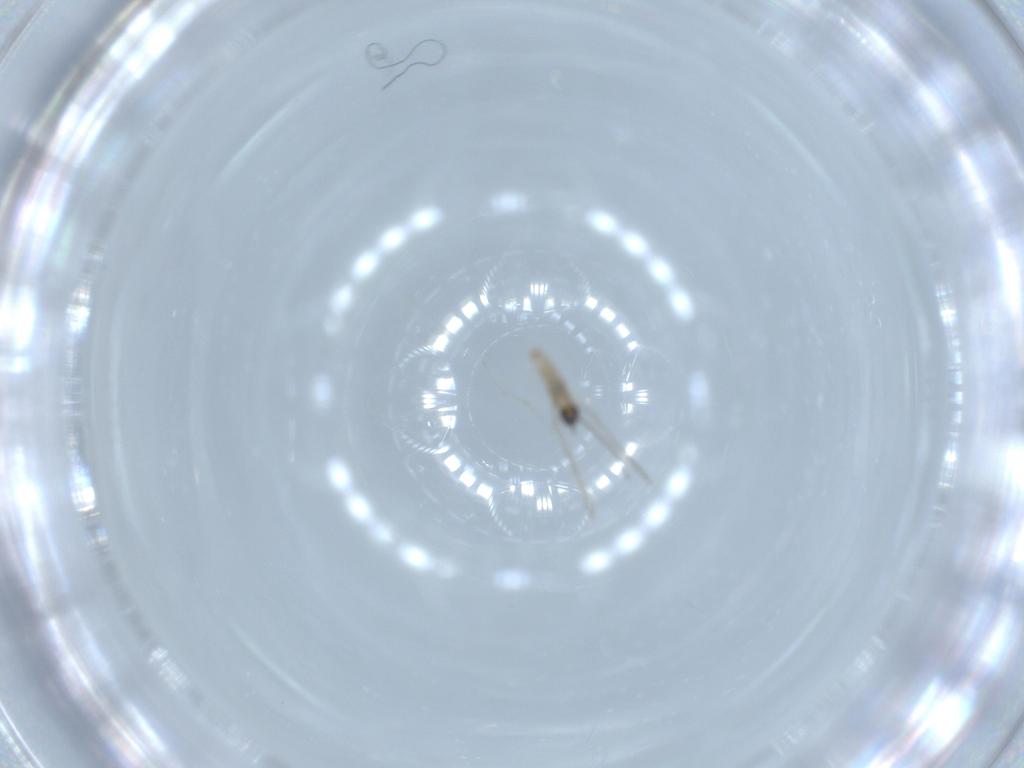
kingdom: Animalia
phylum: Arthropoda
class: Insecta
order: Diptera
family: Cecidomyiidae
